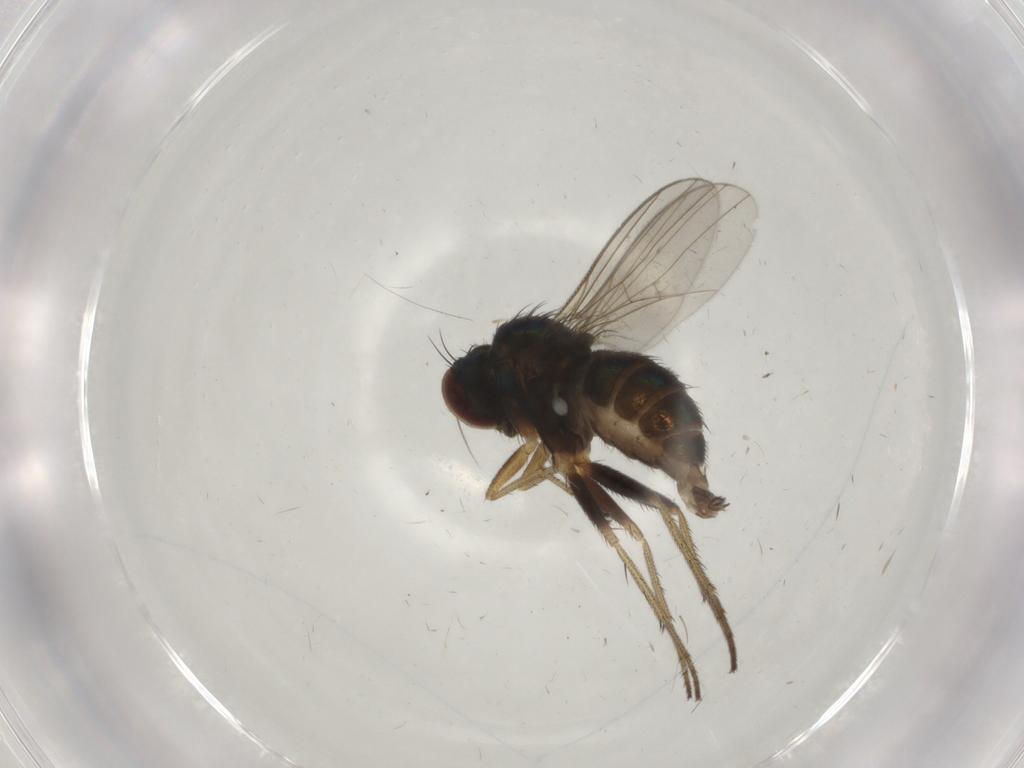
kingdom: Animalia
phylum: Arthropoda
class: Insecta
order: Diptera
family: Dolichopodidae
